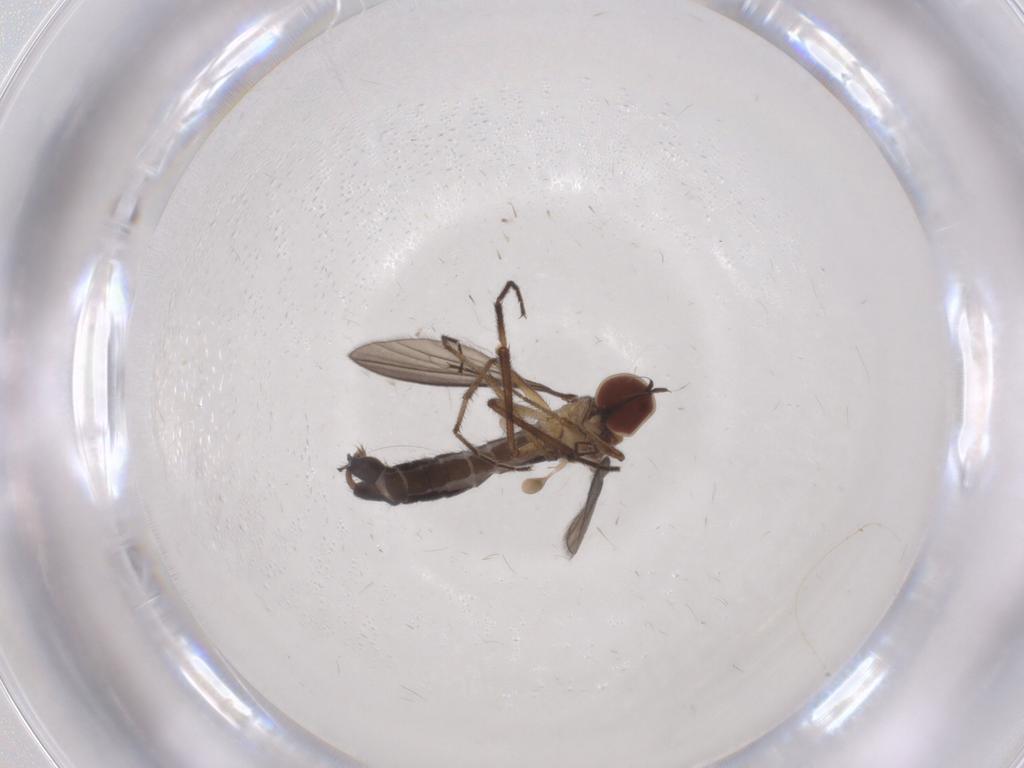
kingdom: Animalia
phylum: Arthropoda
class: Insecta
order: Diptera
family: Hybotidae
